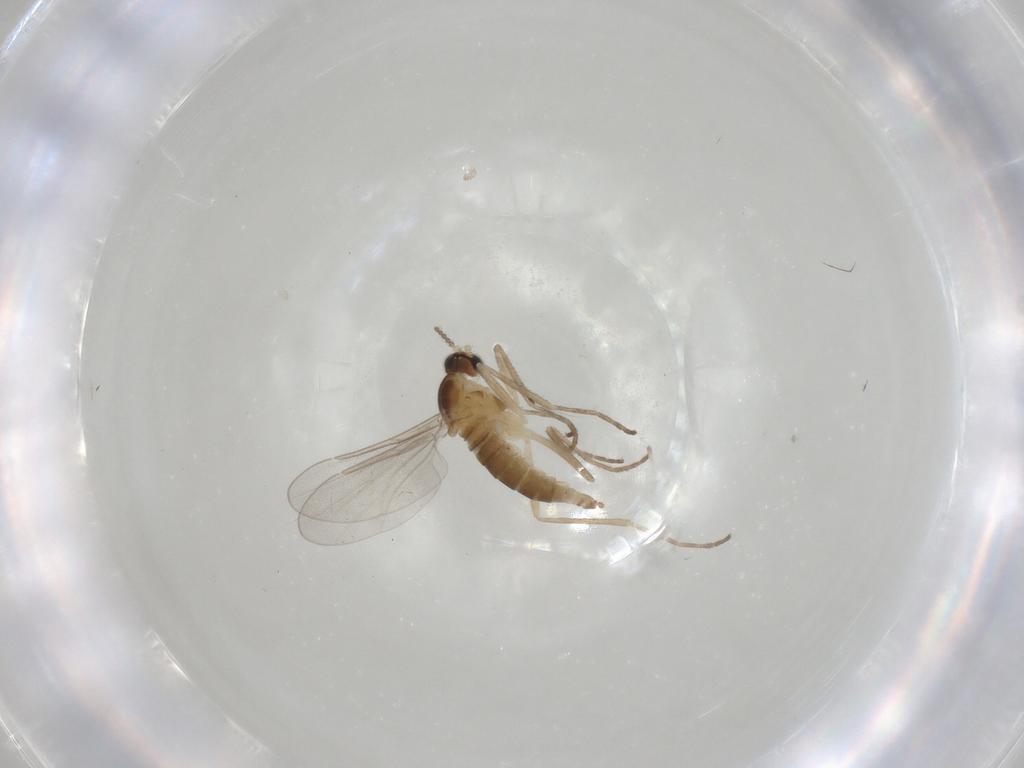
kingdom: Animalia
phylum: Arthropoda
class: Insecta
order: Diptera
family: Cecidomyiidae
